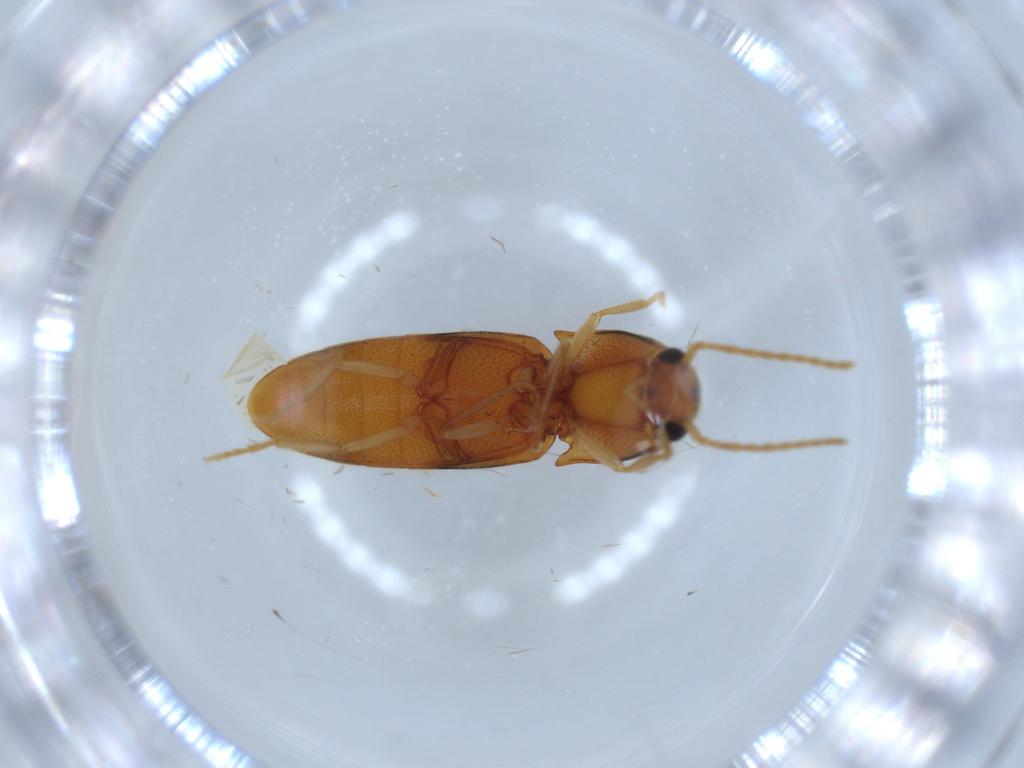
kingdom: Animalia
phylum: Arthropoda
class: Insecta
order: Coleoptera
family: Elateridae
